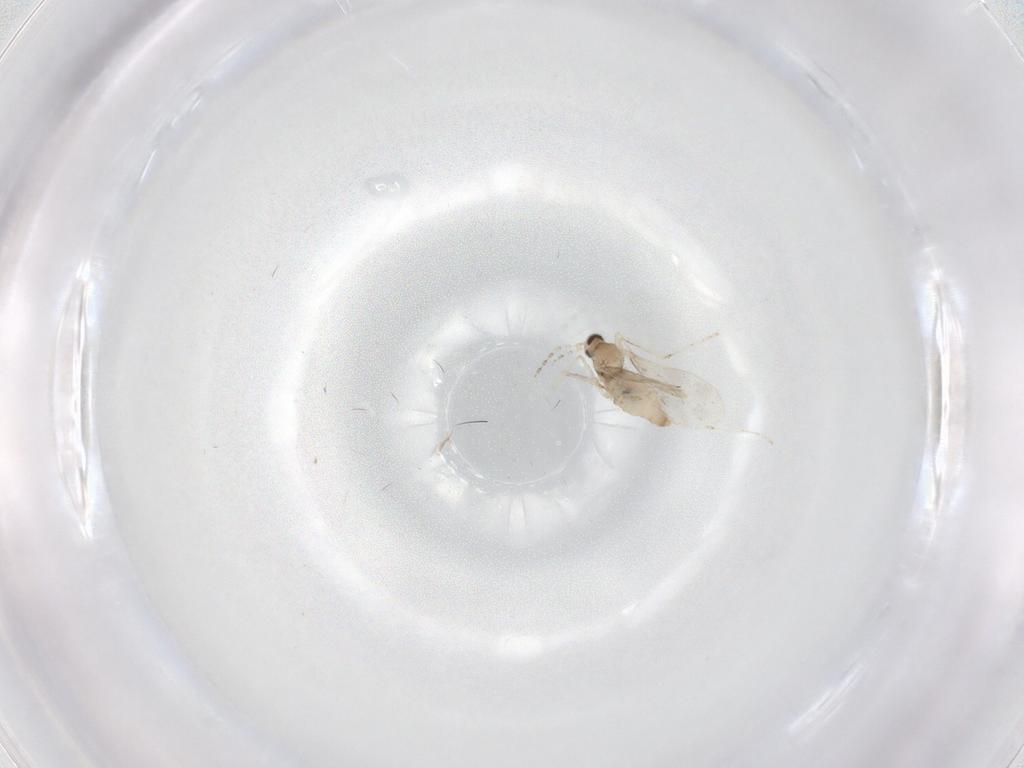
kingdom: Animalia
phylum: Arthropoda
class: Insecta
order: Diptera
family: Cecidomyiidae
